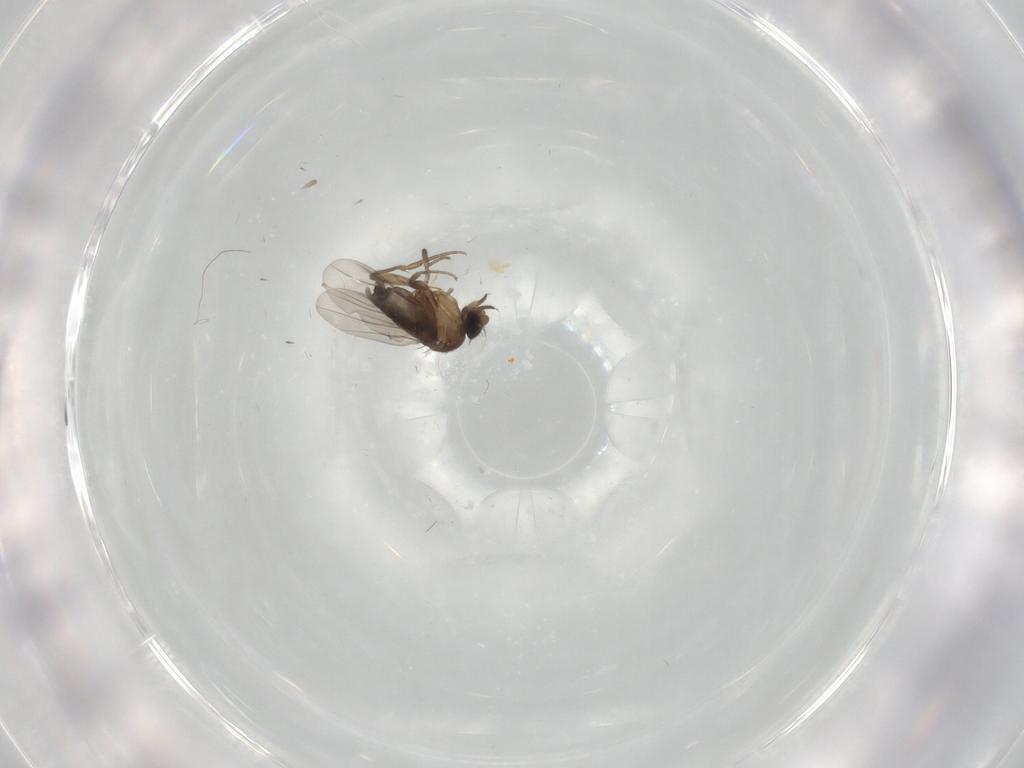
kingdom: Animalia
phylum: Arthropoda
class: Insecta
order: Diptera
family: Phoridae
